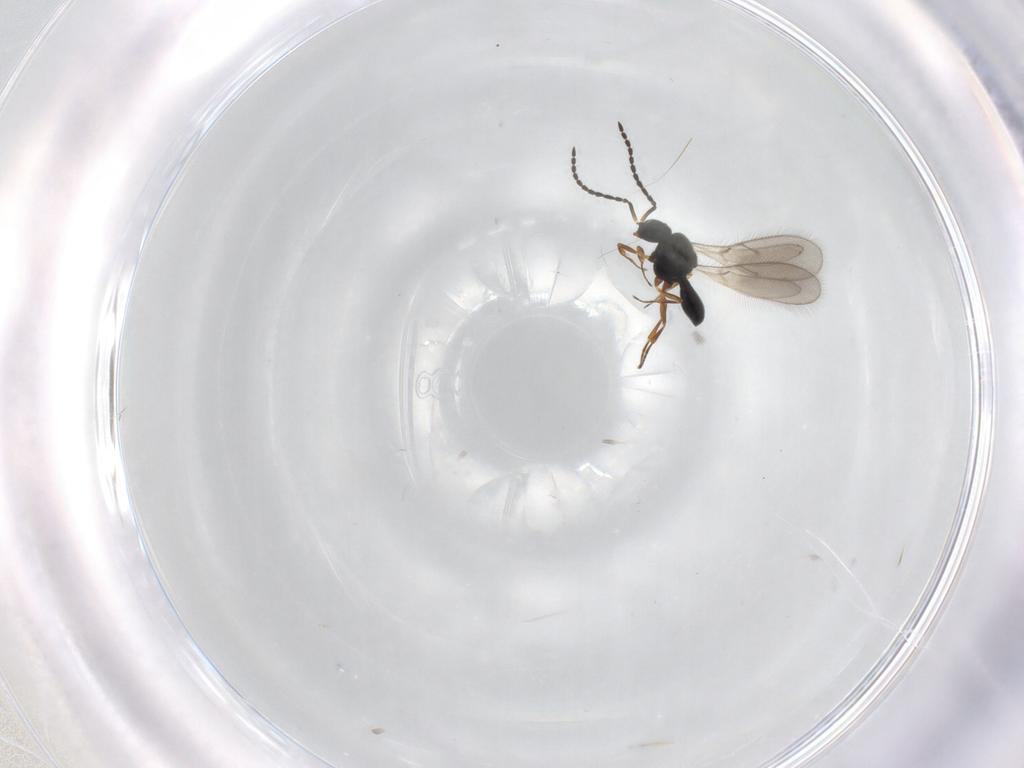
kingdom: Animalia
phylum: Arthropoda
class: Insecta
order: Hymenoptera
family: Scelionidae
